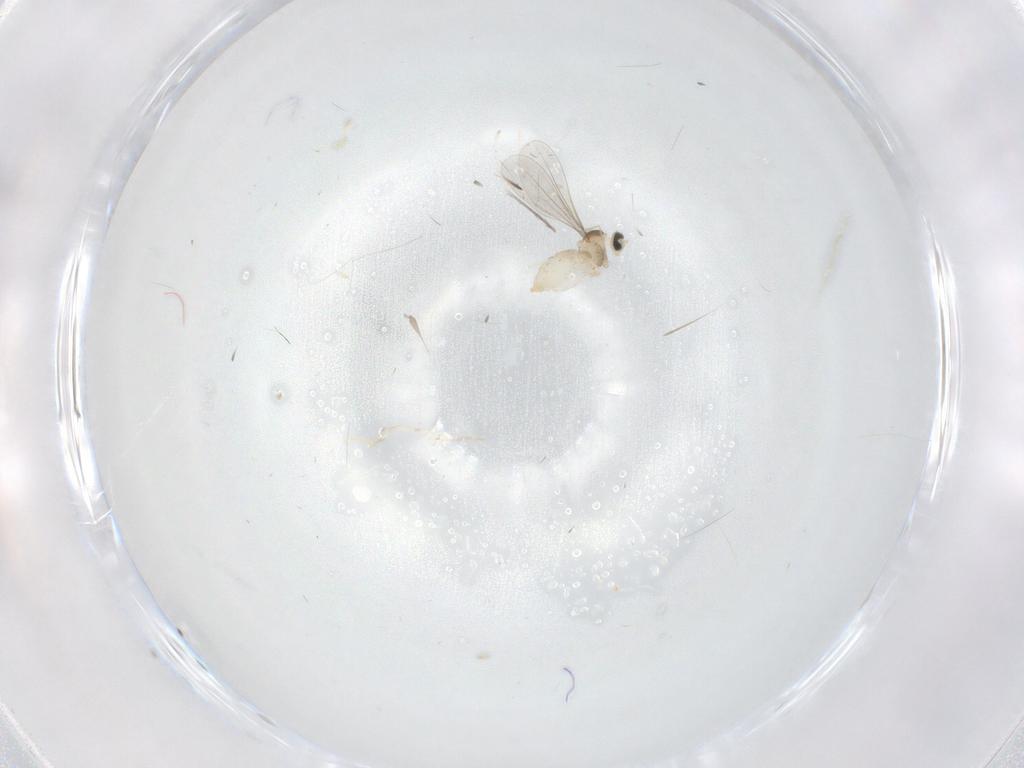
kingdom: Animalia
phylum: Arthropoda
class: Insecta
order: Diptera
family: Cecidomyiidae
